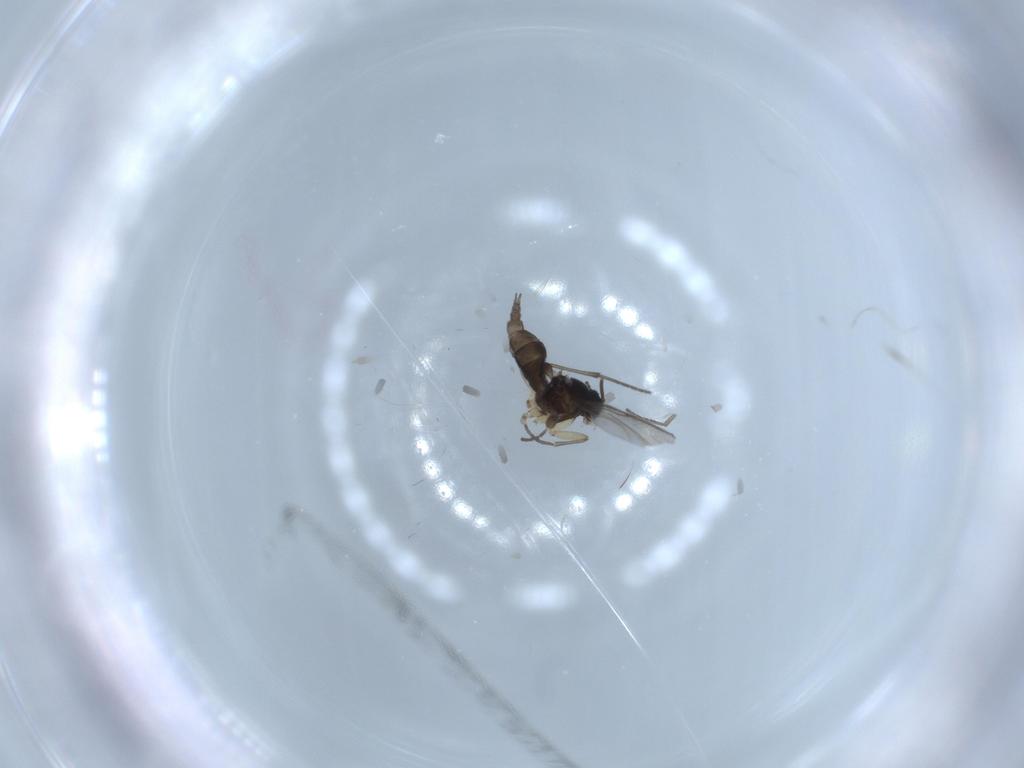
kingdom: Animalia
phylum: Arthropoda
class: Insecta
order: Diptera
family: Sciaridae
